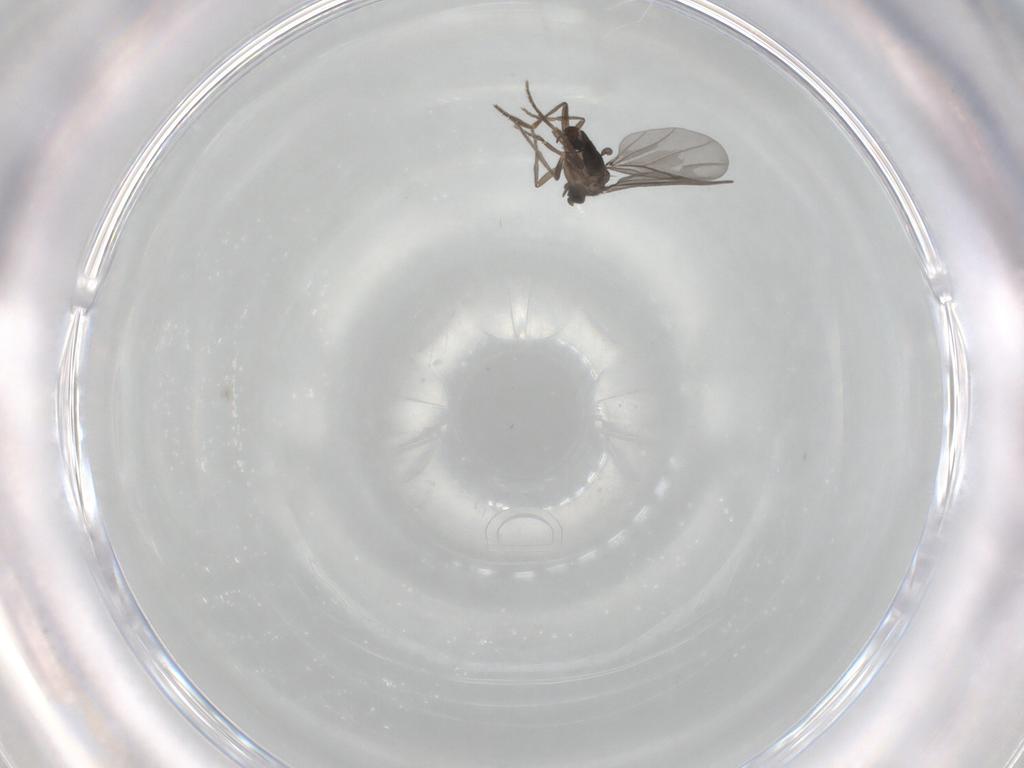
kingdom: Animalia
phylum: Arthropoda
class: Insecta
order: Diptera
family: Phoridae
